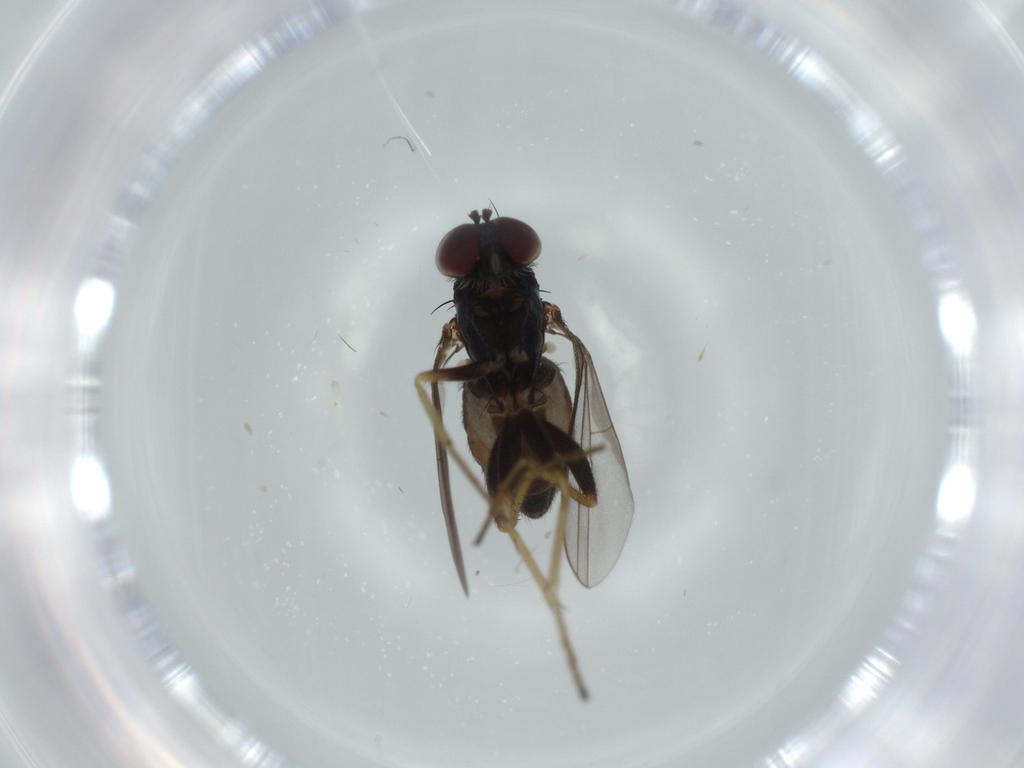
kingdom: Animalia
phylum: Arthropoda
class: Insecta
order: Diptera
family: Dolichopodidae
